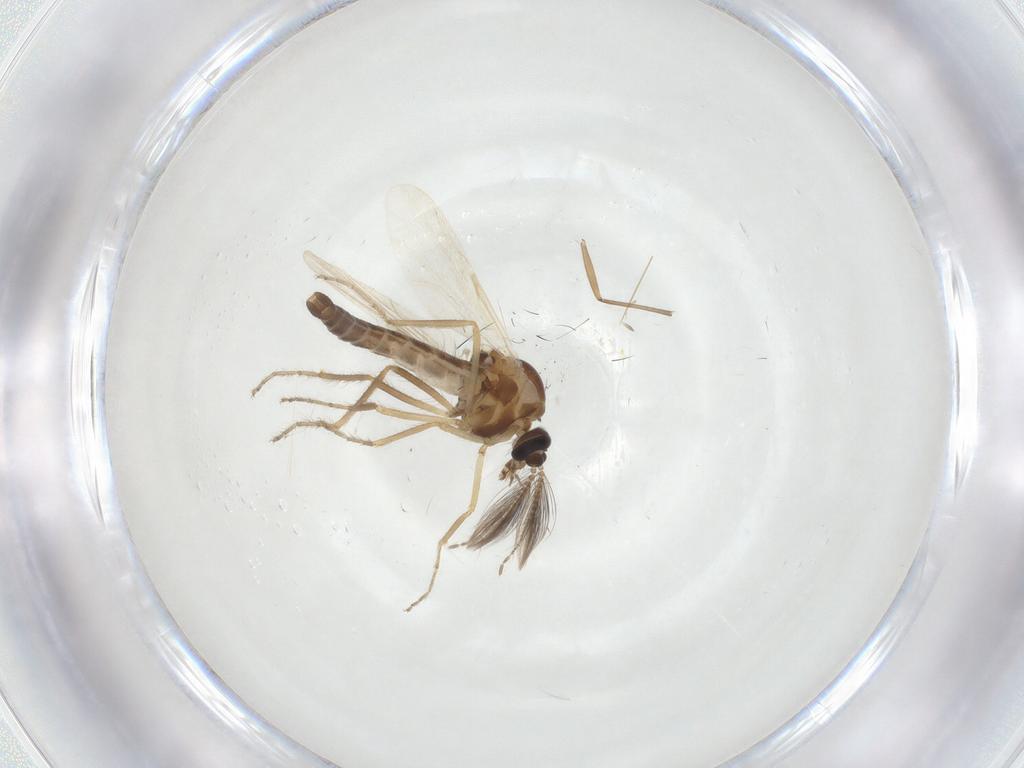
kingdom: Animalia
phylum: Arthropoda
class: Insecta
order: Diptera
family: Ceratopogonidae
